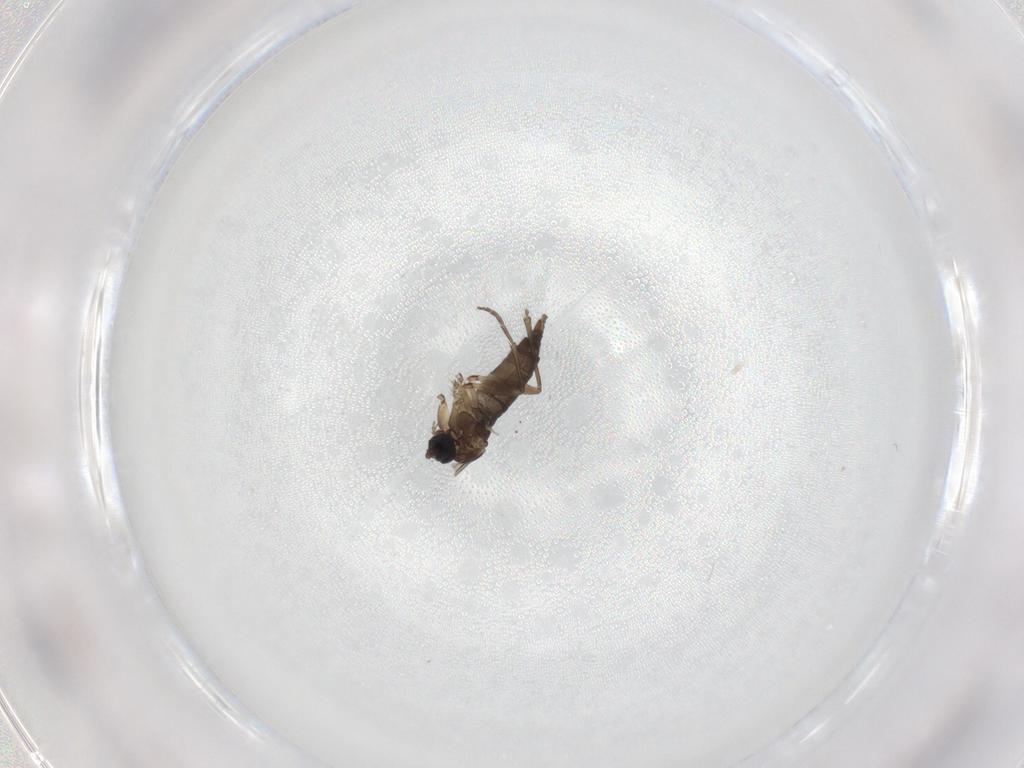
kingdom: Animalia
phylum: Arthropoda
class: Insecta
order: Diptera
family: Sciaridae
